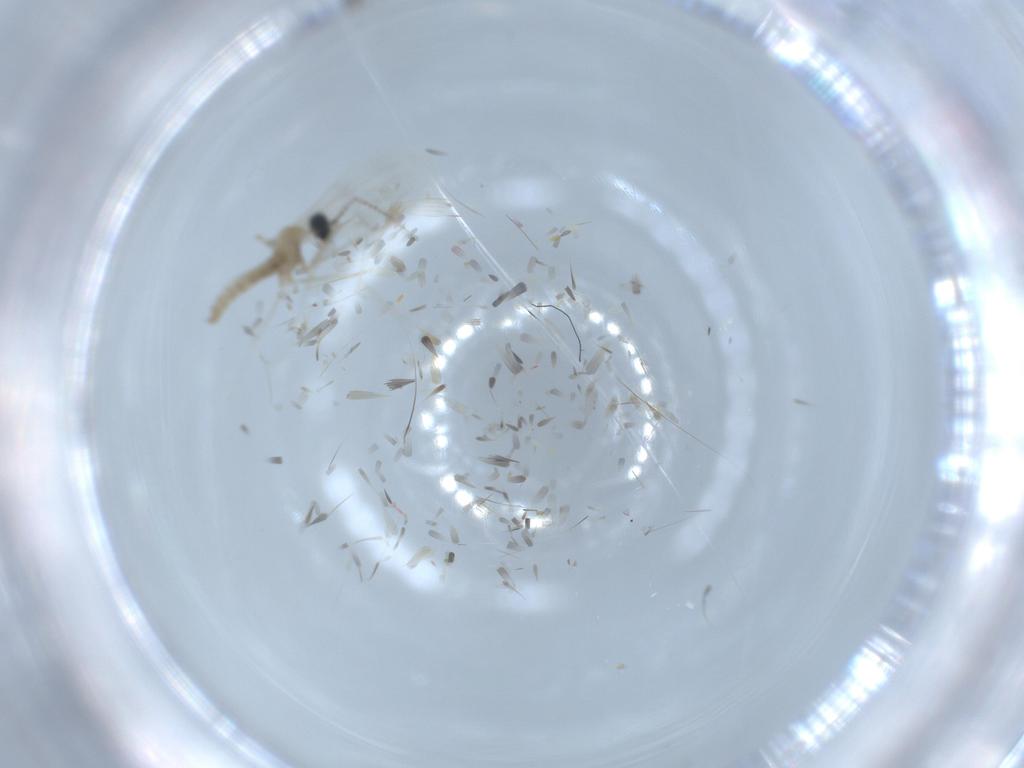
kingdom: Animalia
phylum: Arthropoda
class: Insecta
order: Diptera
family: Cecidomyiidae
